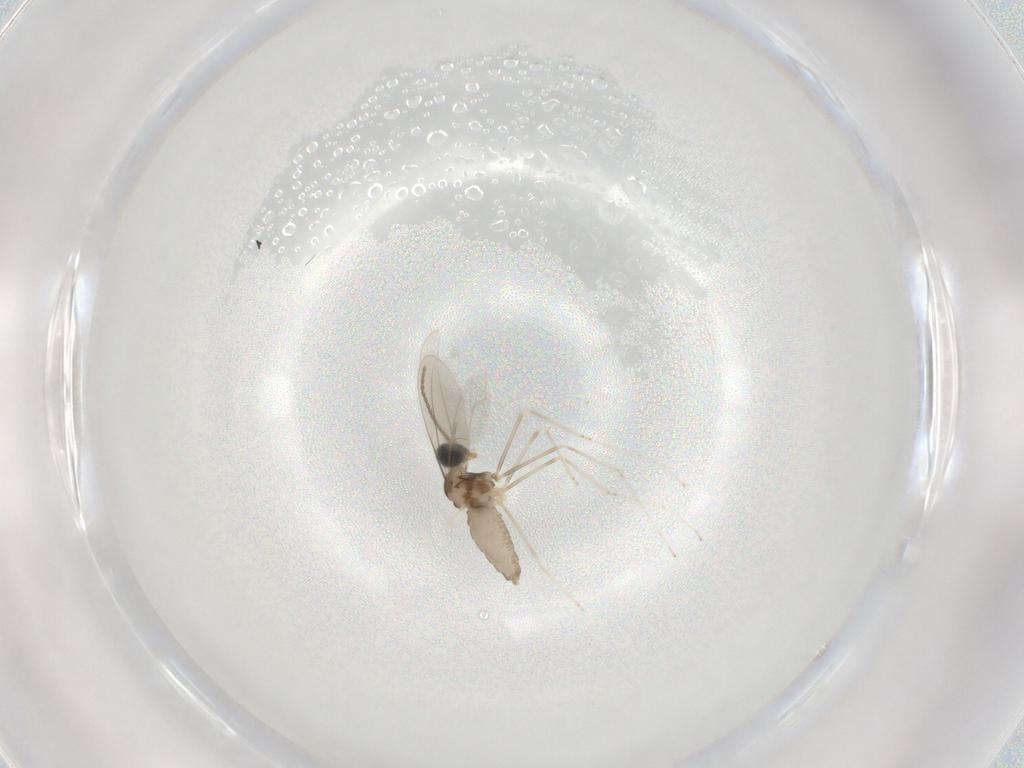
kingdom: Animalia
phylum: Arthropoda
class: Insecta
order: Diptera
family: Cecidomyiidae
